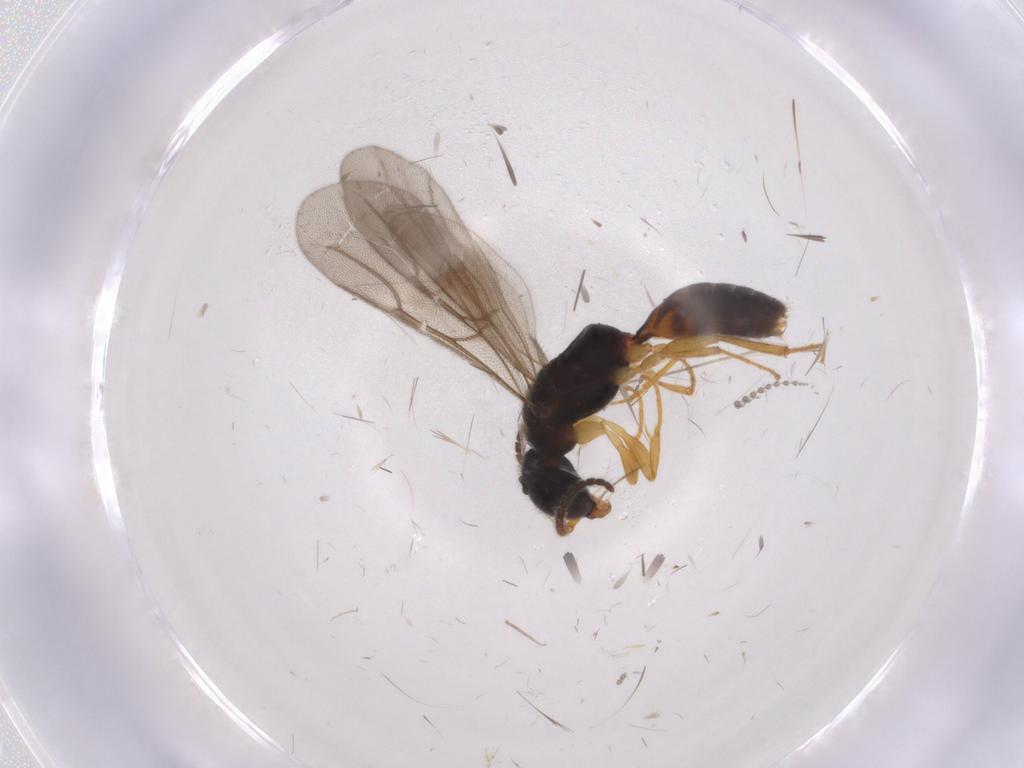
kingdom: Animalia
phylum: Arthropoda
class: Insecta
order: Hymenoptera
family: Bethylidae
